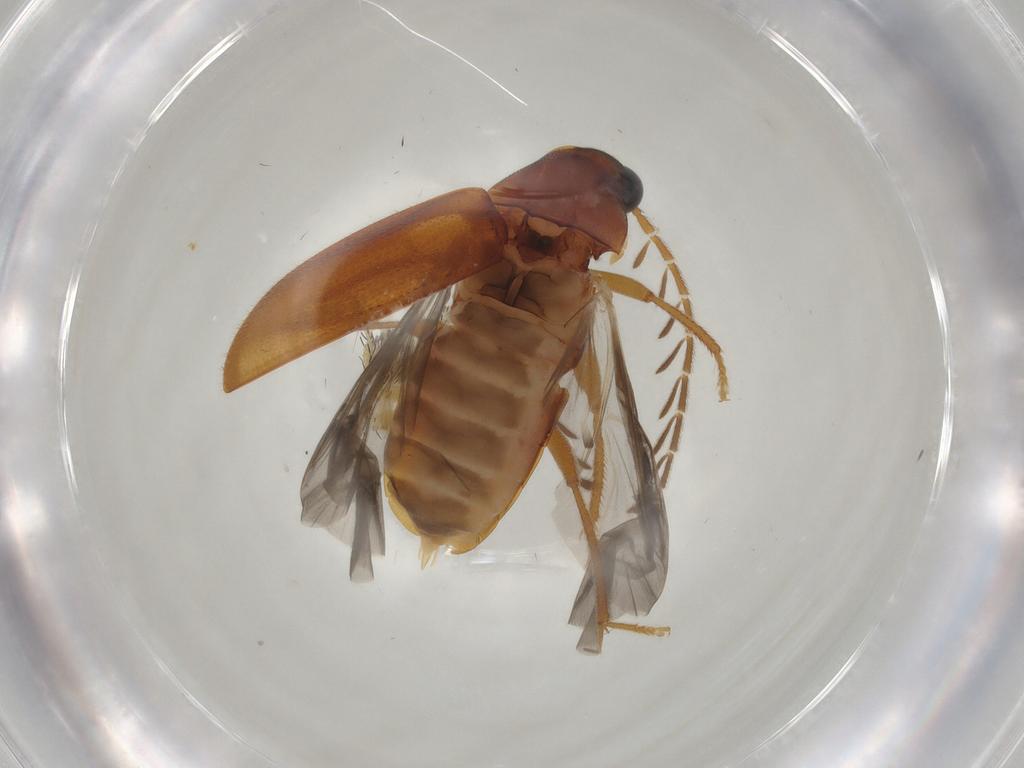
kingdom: Animalia
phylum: Arthropoda
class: Insecta
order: Coleoptera
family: Ptilodactylidae
